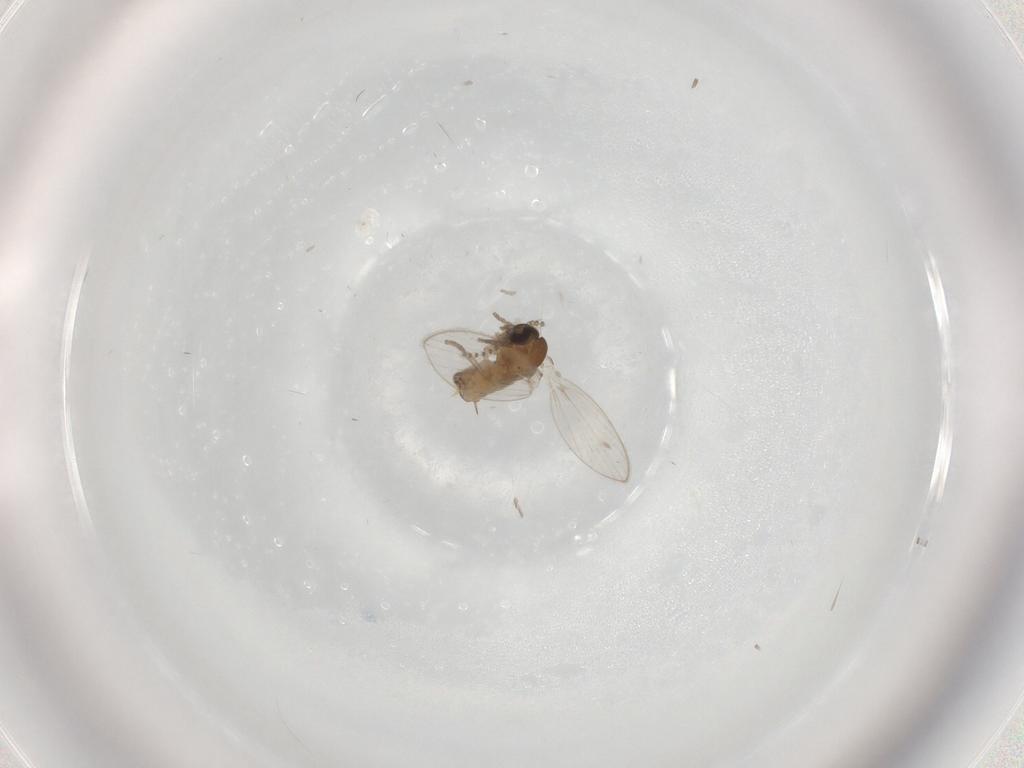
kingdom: Animalia
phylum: Arthropoda
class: Insecta
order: Diptera
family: Psychodidae
